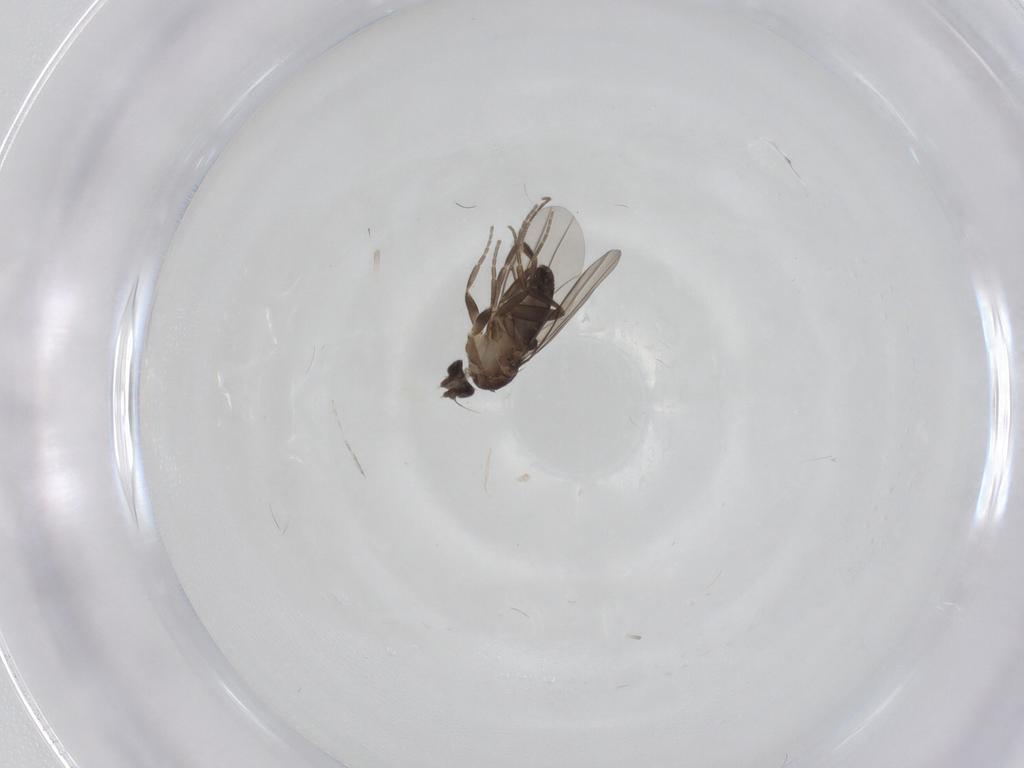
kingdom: Animalia
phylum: Arthropoda
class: Insecta
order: Diptera
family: Phoridae
